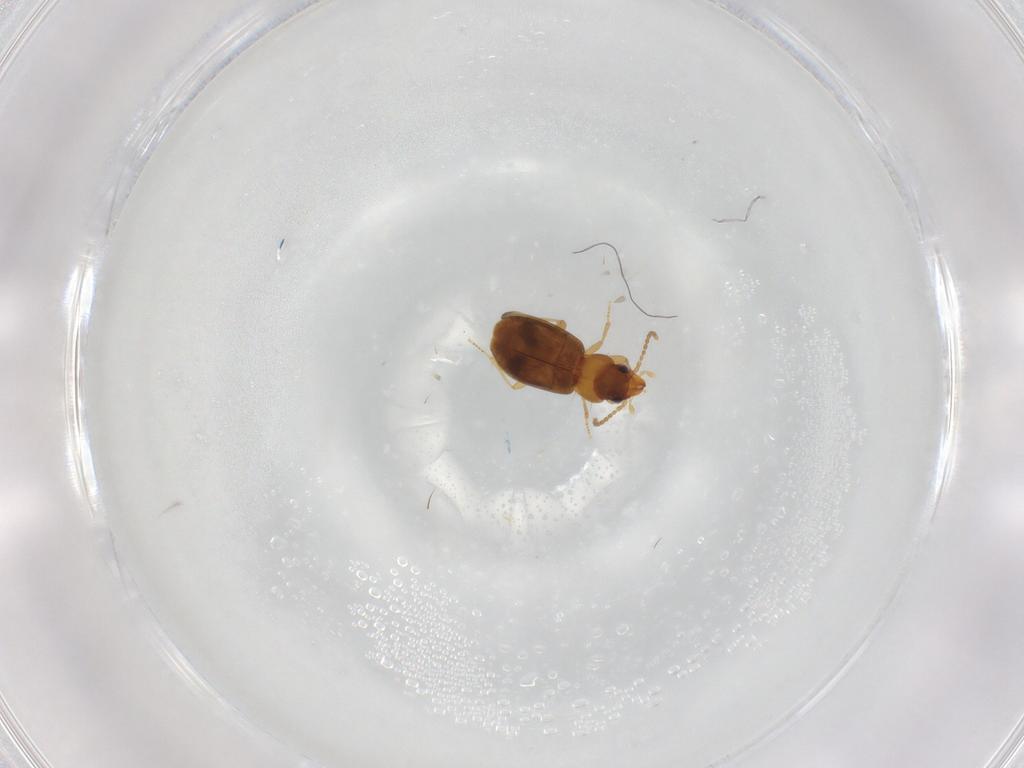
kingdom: Animalia
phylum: Arthropoda
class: Insecta
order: Coleoptera
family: Carabidae
